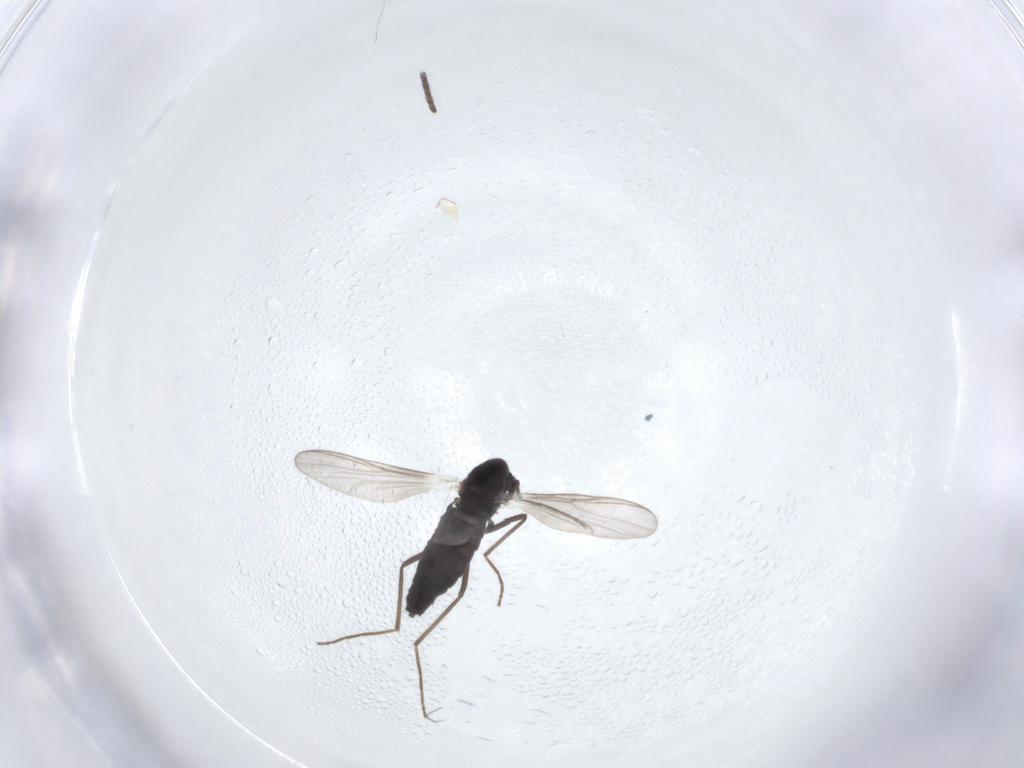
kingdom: Animalia
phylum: Arthropoda
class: Insecta
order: Diptera
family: Chironomidae
